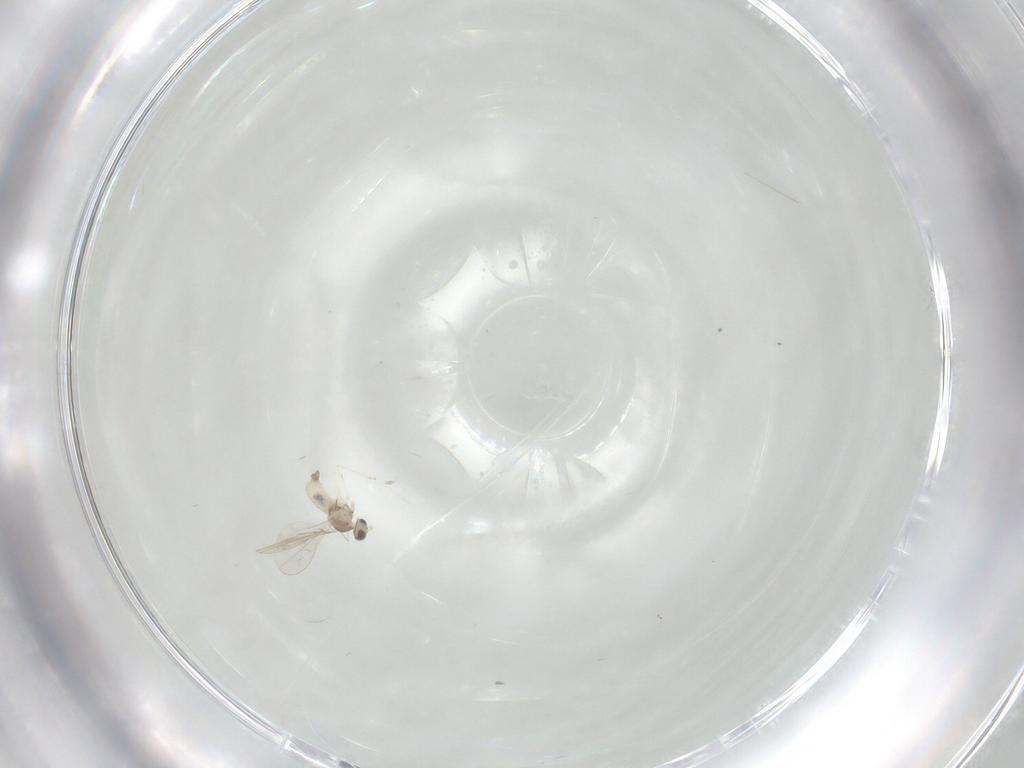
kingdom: Animalia
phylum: Arthropoda
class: Insecta
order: Diptera
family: Cecidomyiidae
